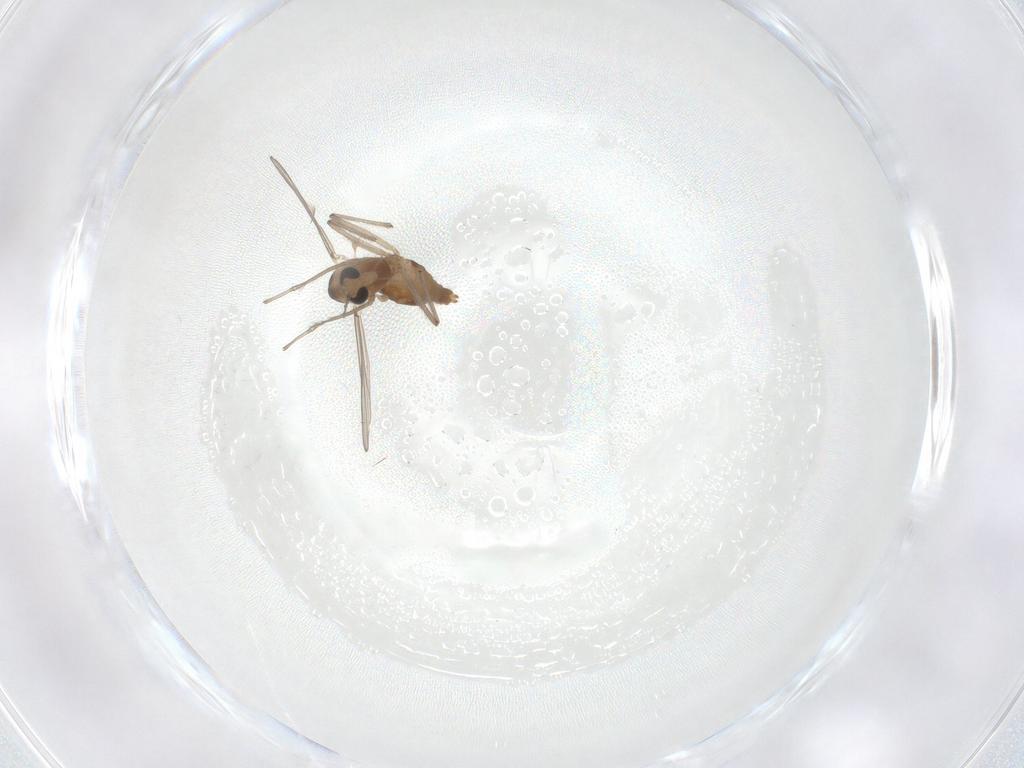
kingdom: Animalia
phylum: Arthropoda
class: Insecta
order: Diptera
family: Chironomidae
